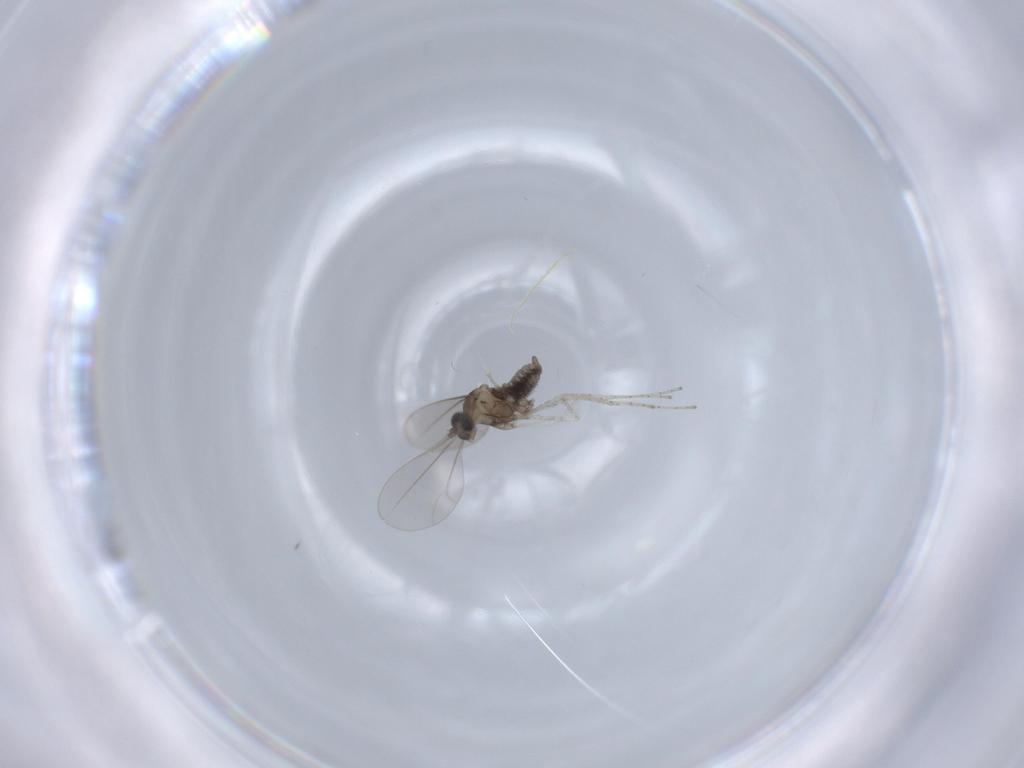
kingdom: Animalia
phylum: Arthropoda
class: Insecta
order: Diptera
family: Cecidomyiidae
